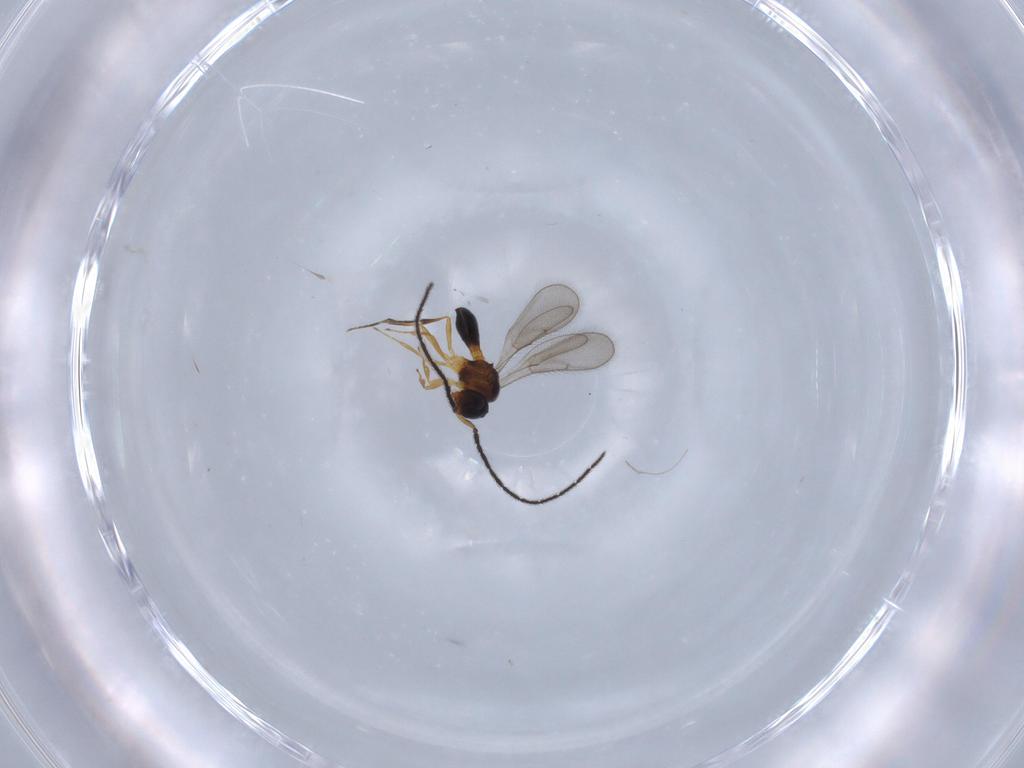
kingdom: Animalia
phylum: Arthropoda
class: Insecta
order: Hymenoptera
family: Scelionidae
